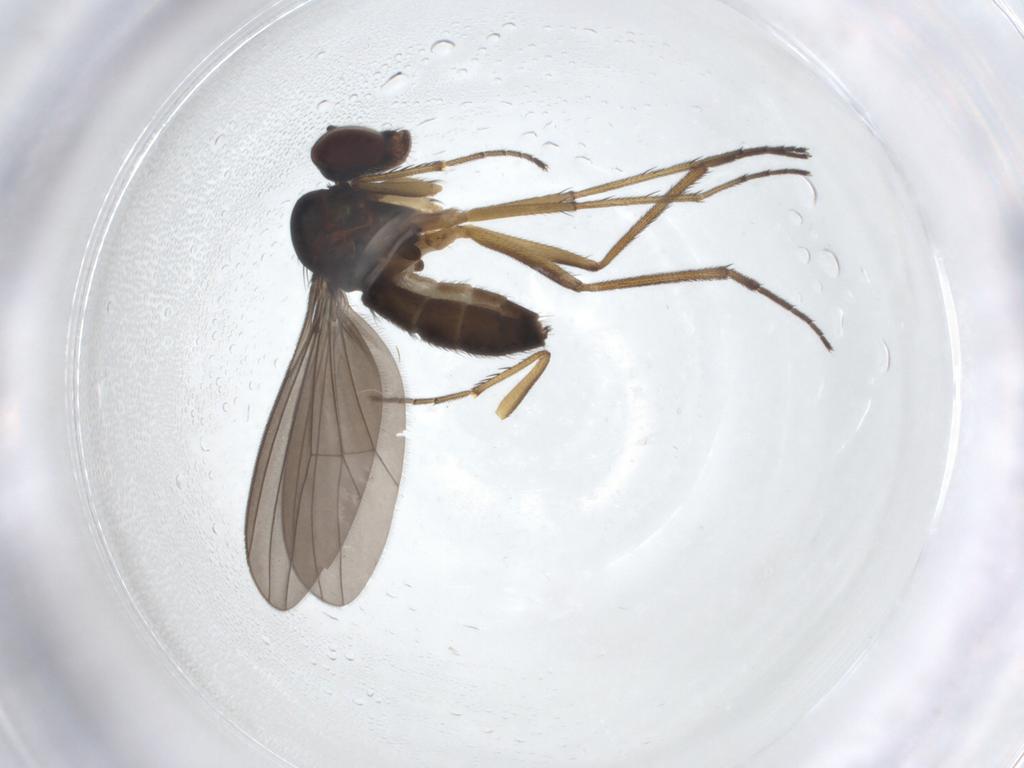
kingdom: Animalia
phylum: Arthropoda
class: Insecta
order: Diptera
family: Dolichopodidae
